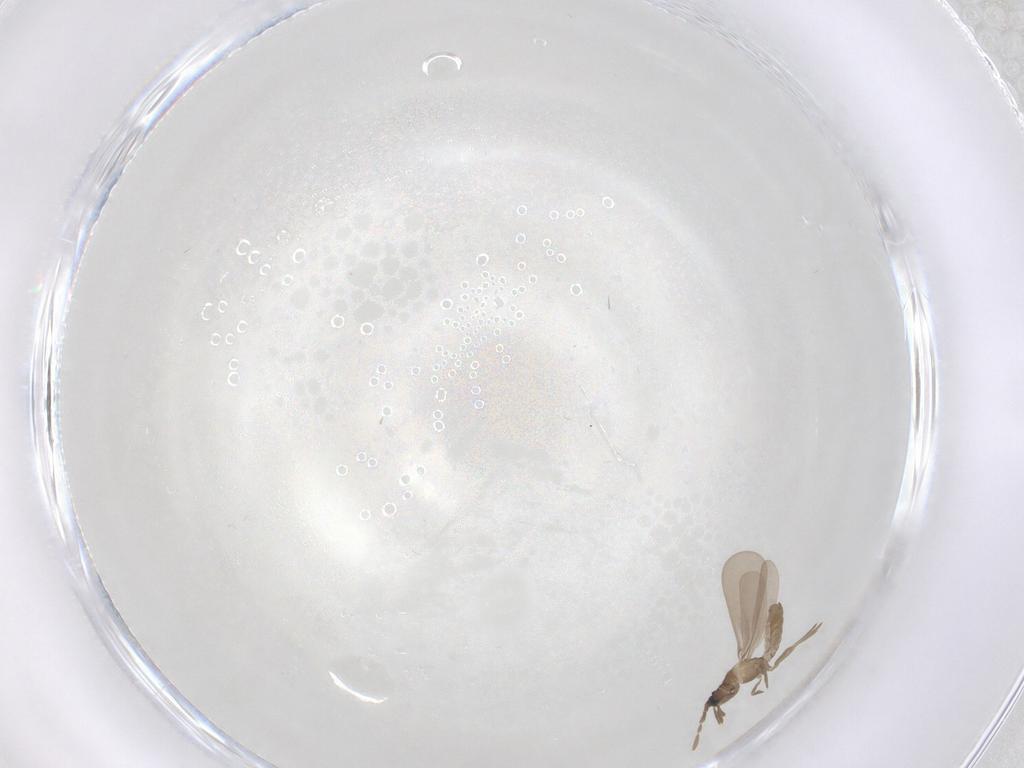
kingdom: Animalia
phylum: Arthropoda
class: Insecta
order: Hemiptera
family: Enicocephalidae
